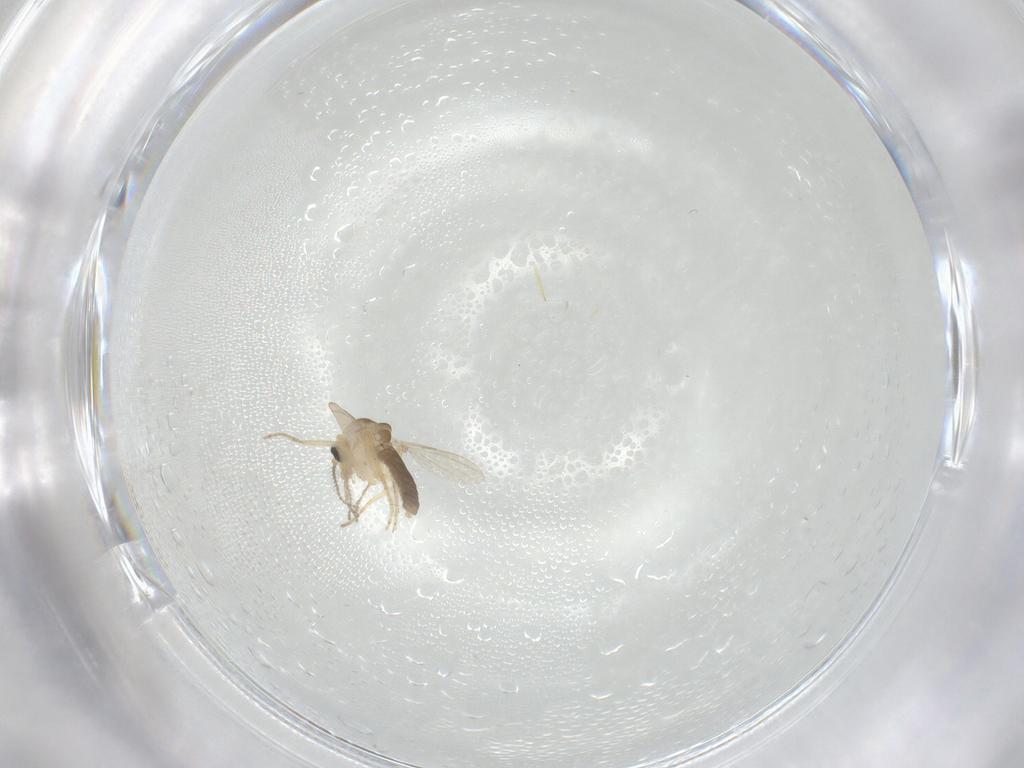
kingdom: Animalia
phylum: Arthropoda
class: Insecta
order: Diptera
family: Ceratopogonidae
